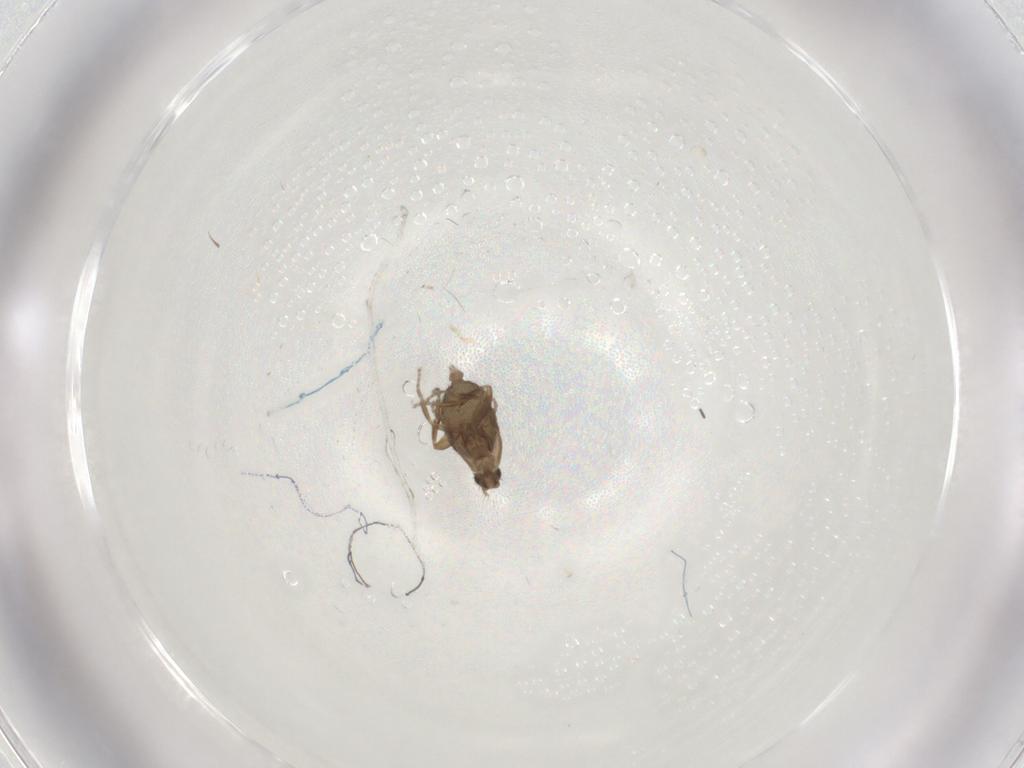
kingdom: Animalia
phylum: Arthropoda
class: Insecta
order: Diptera
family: Phoridae
